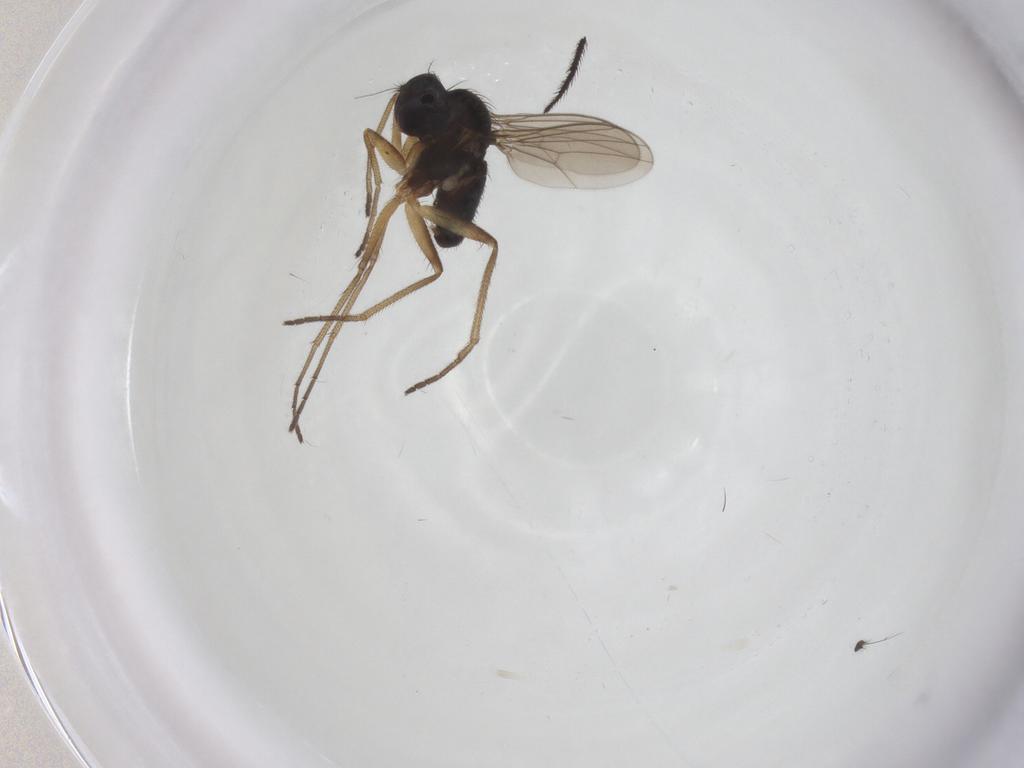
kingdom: Animalia
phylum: Arthropoda
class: Insecta
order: Diptera
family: Dolichopodidae
